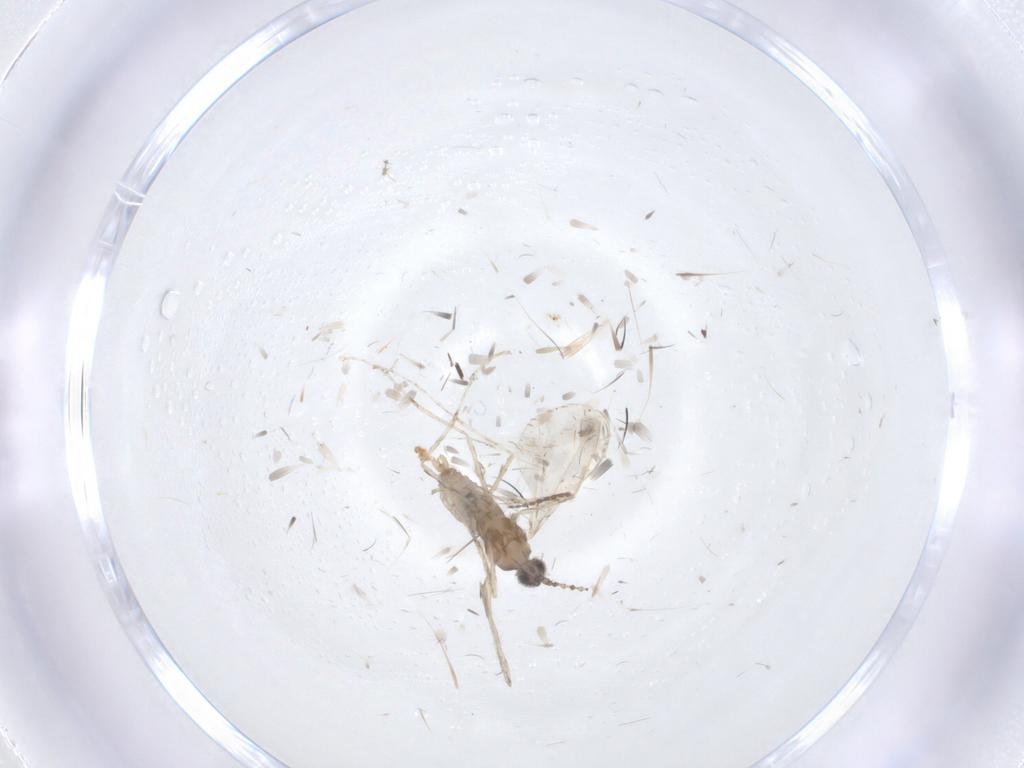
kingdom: Animalia
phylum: Arthropoda
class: Insecta
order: Diptera
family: Cecidomyiidae
